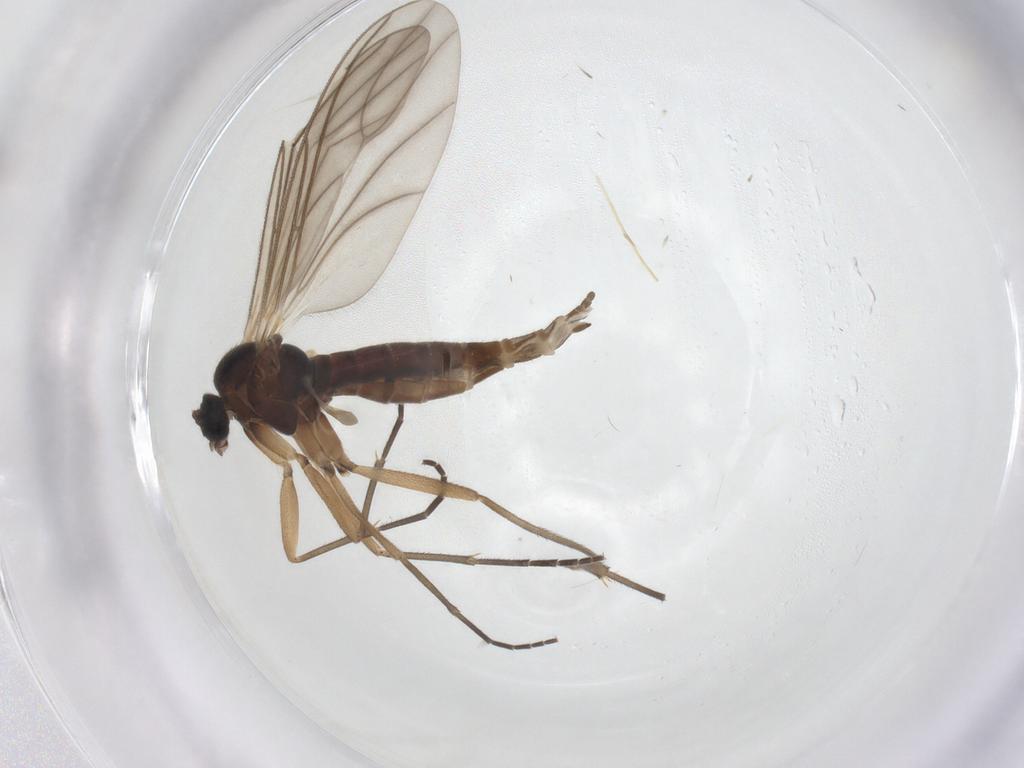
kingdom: Animalia
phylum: Arthropoda
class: Insecta
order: Diptera
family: Sciaridae
